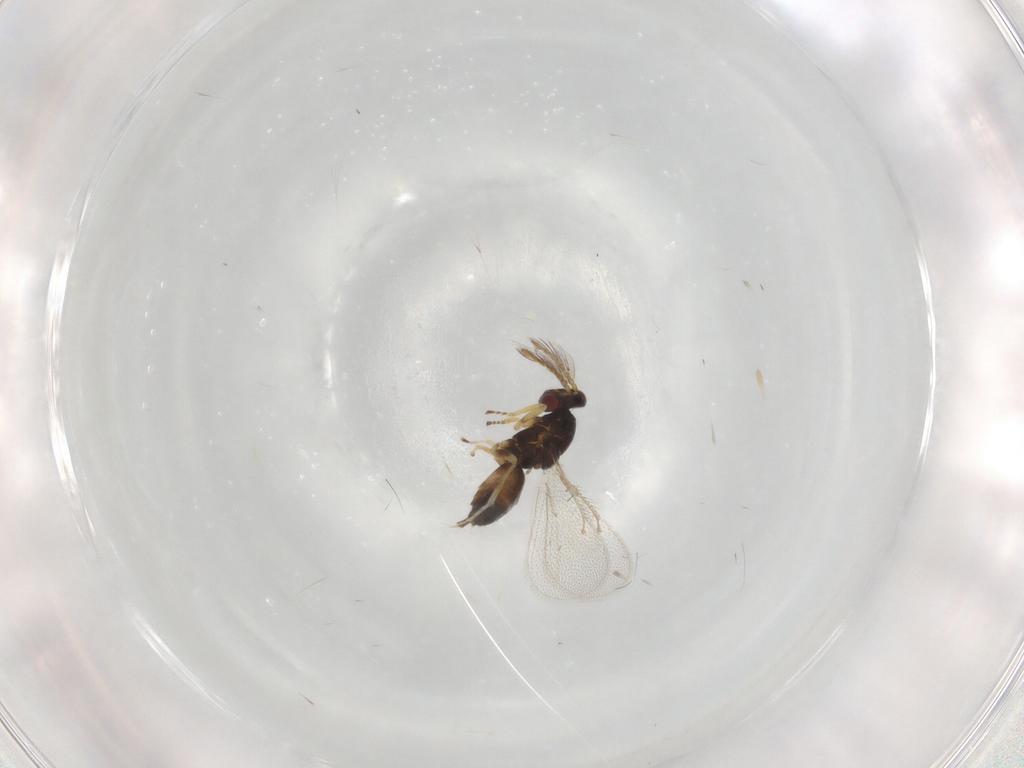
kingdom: Animalia
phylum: Arthropoda
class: Insecta
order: Hymenoptera
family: Eulophidae
